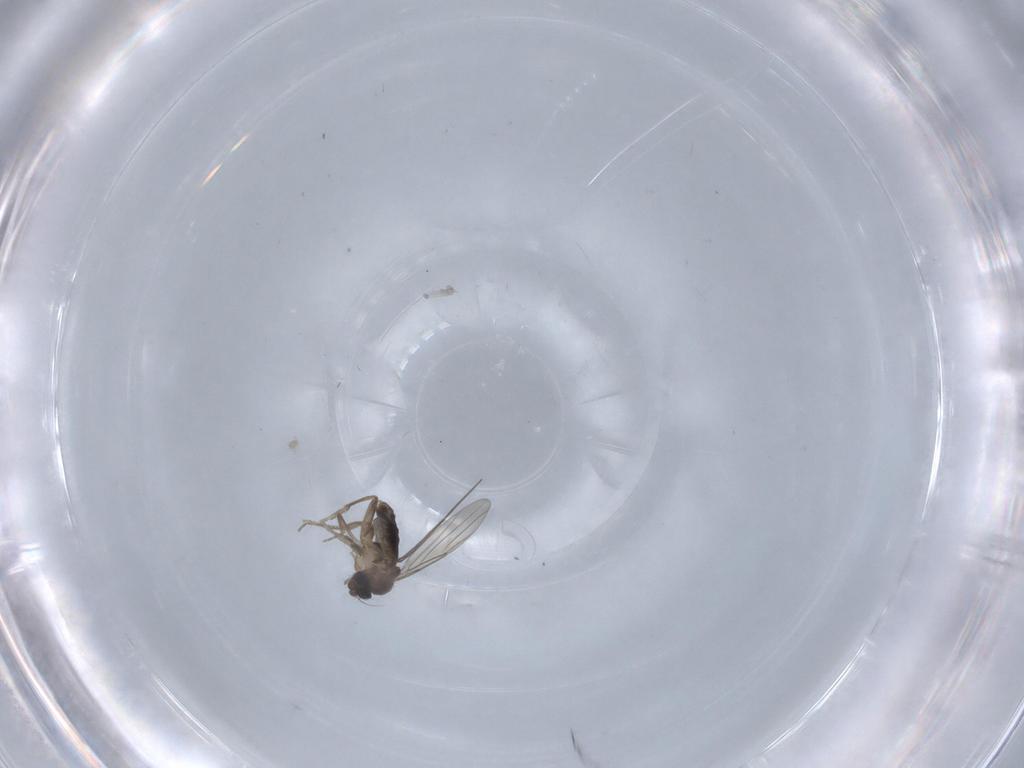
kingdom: Animalia
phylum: Arthropoda
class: Insecta
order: Diptera
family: Phoridae
